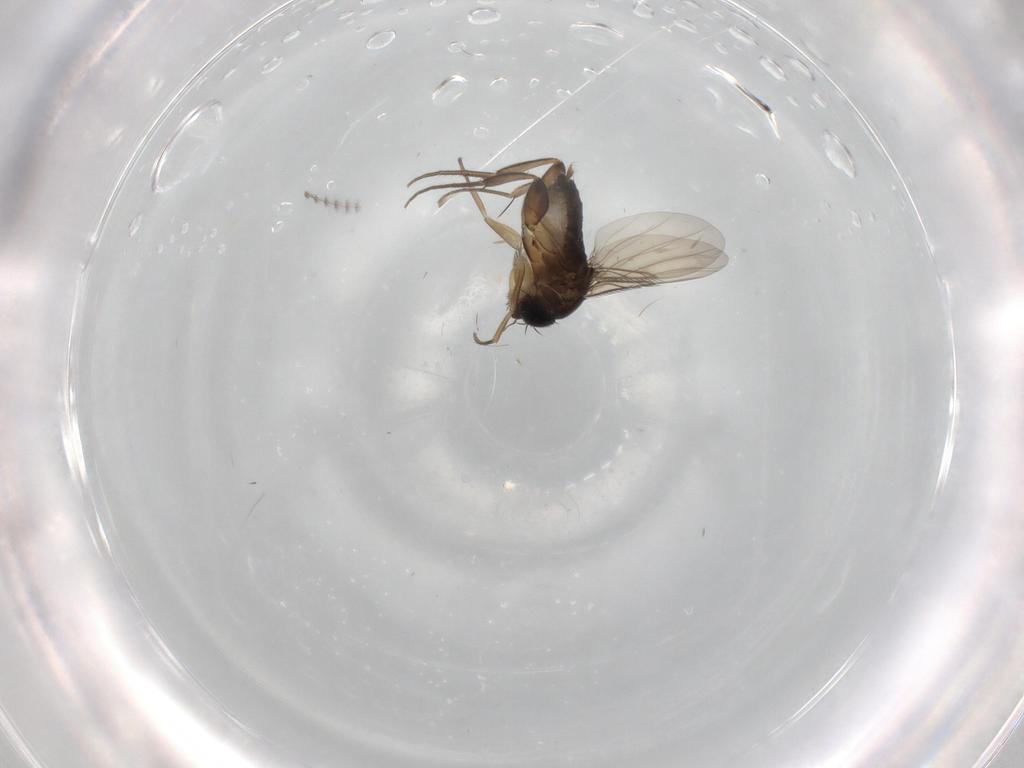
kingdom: Animalia
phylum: Arthropoda
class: Insecta
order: Diptera
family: Phoridae
